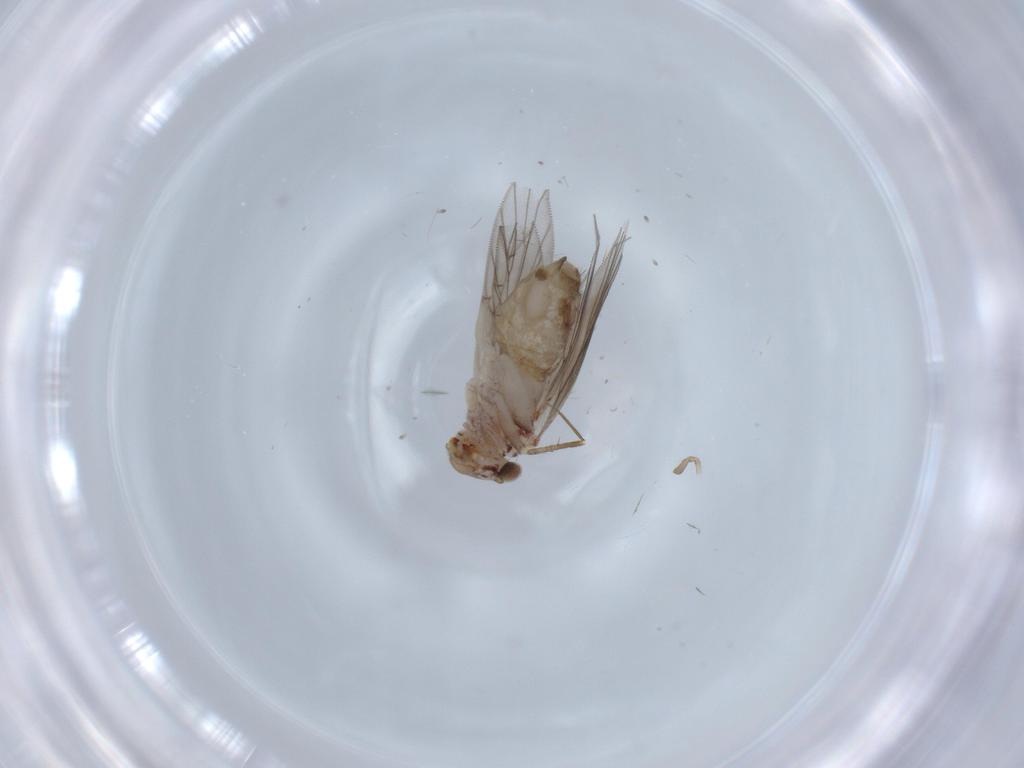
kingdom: Animalia
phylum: Arthropoda
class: Insecta
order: Psocodea
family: Lepidopsocidae
